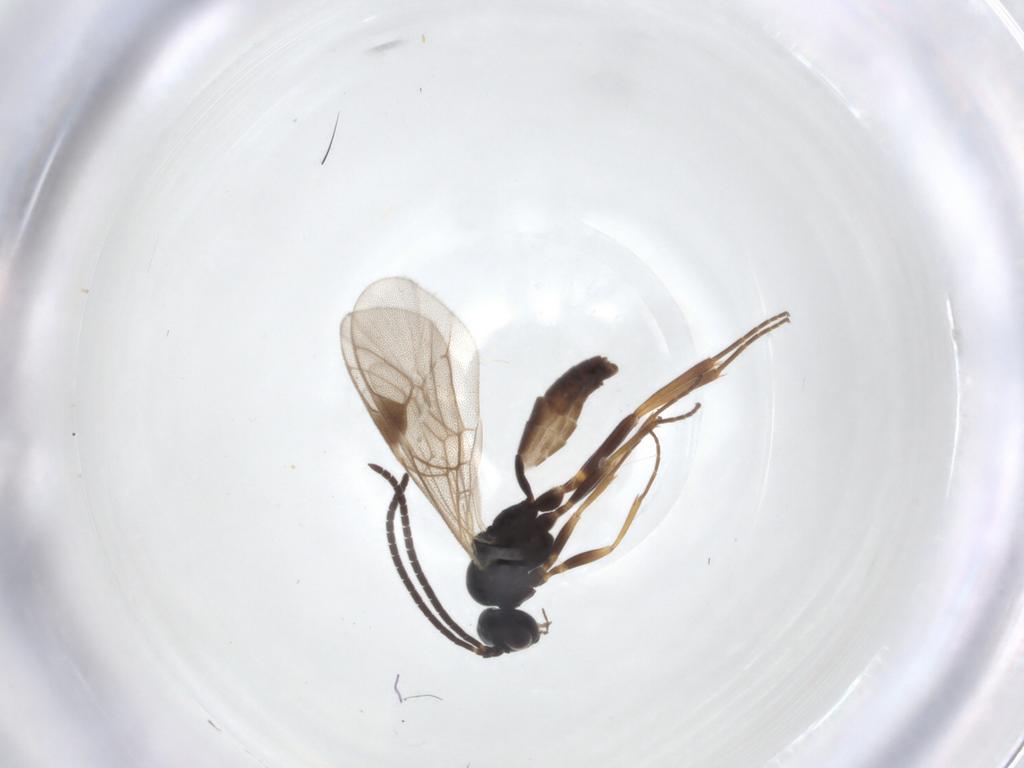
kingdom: Animalia
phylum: Arthropoda
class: Insecta
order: Hymenoptera
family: Ichneumonidae
